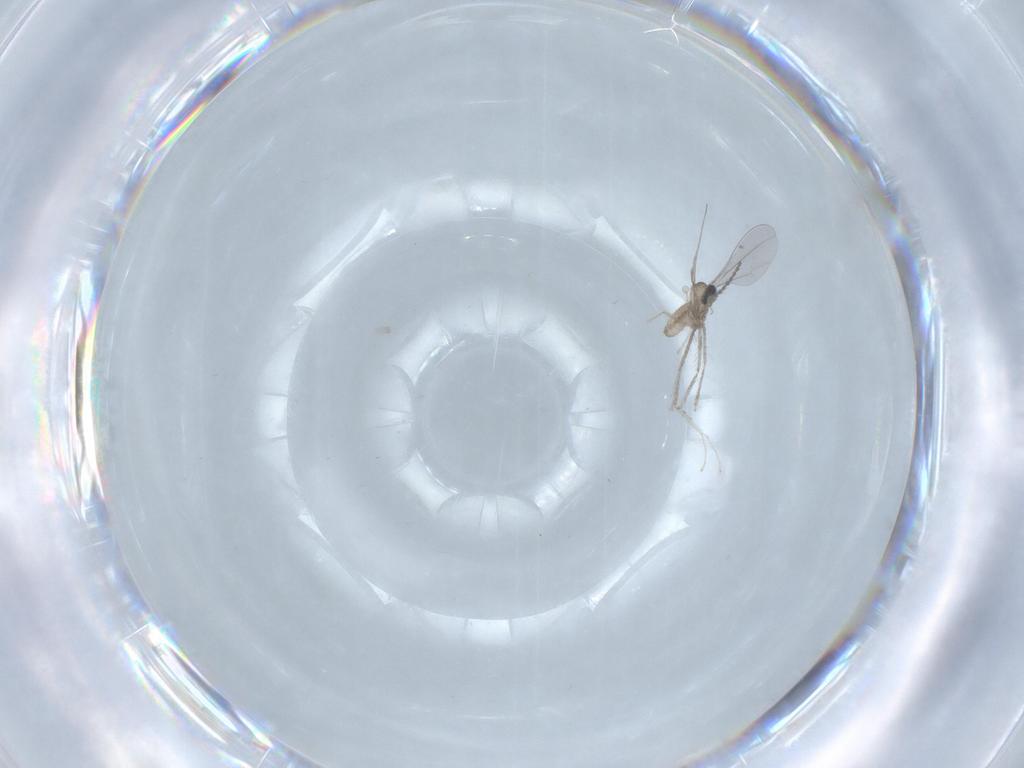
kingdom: Animalia
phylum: Arthropoda
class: Insecta
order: Diptera
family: Cecidomyiidae
